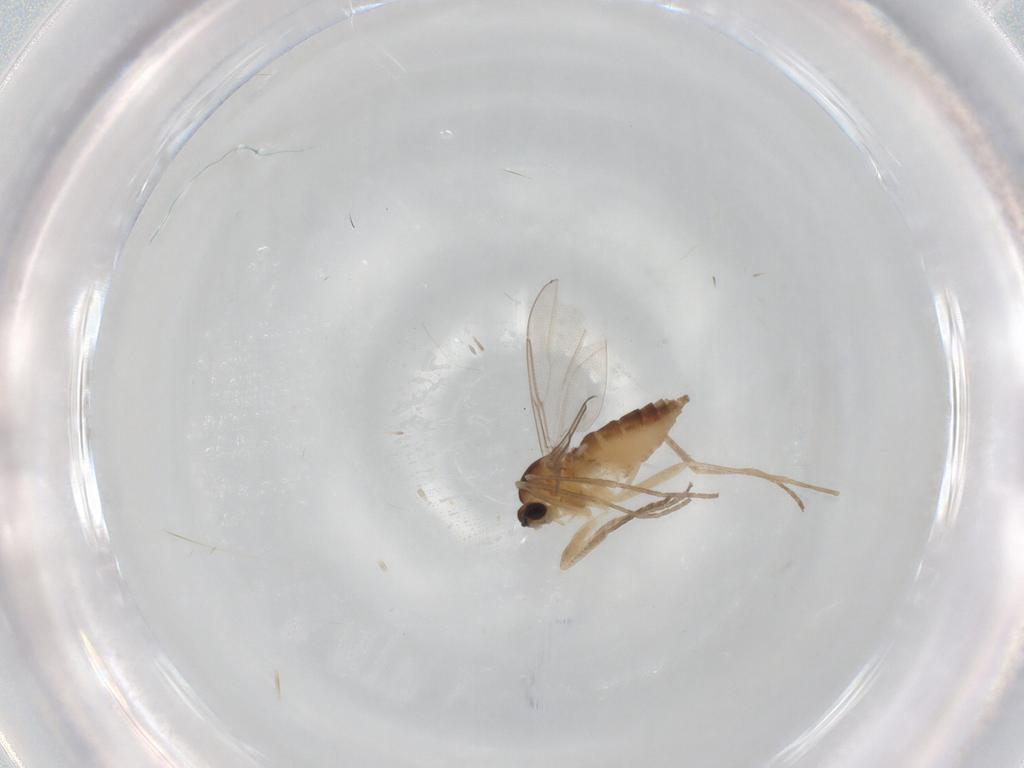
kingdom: Animalia
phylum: Arthropoda
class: Insecta
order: Diptera
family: Cecidomyiidae
